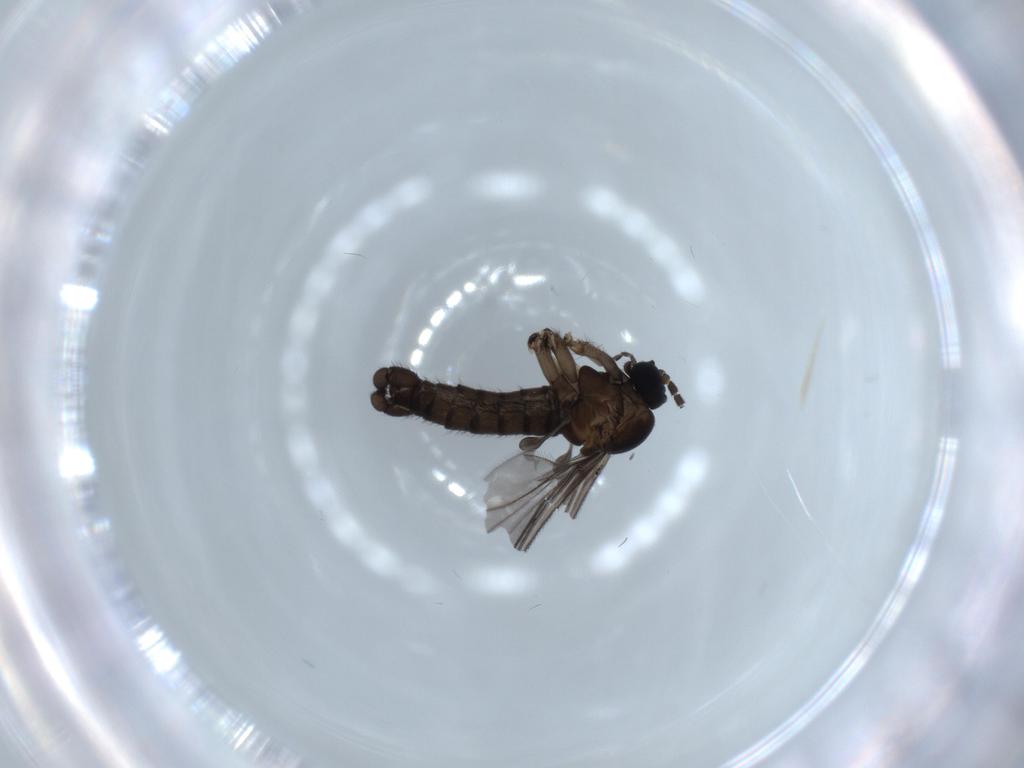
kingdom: Animalia
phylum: Arthropoda
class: Insecta
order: Diptera
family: Sciaridae
